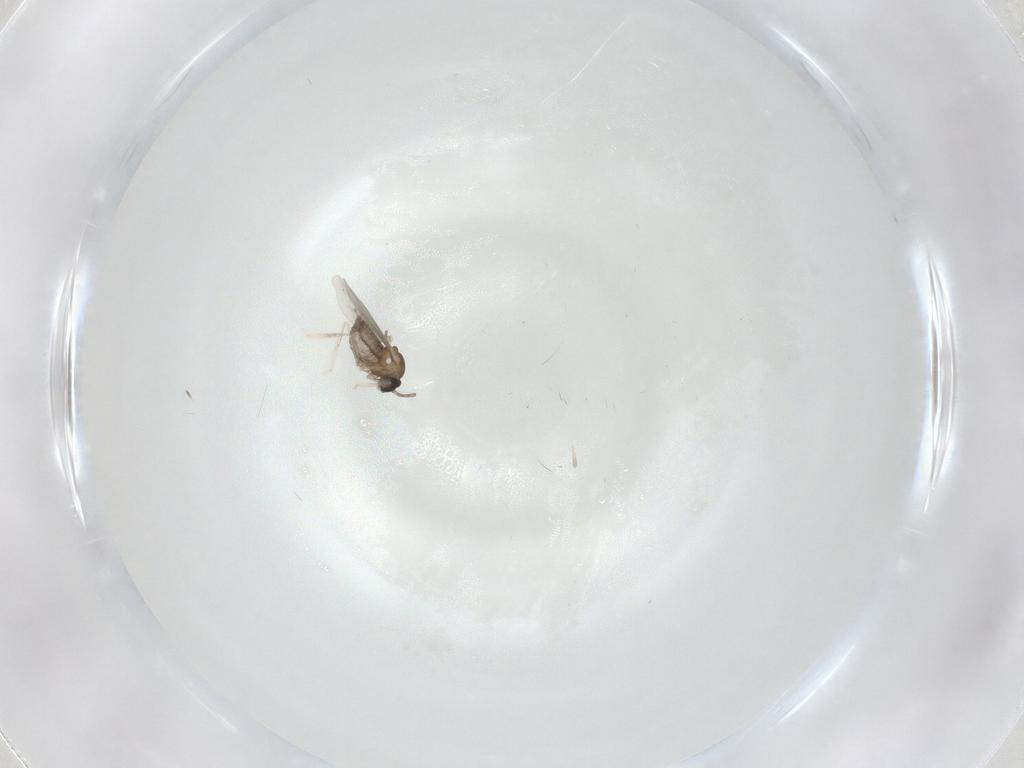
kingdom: Animalia
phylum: Arthropoda
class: Insecta
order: Diptera
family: Cecidomyiidae
